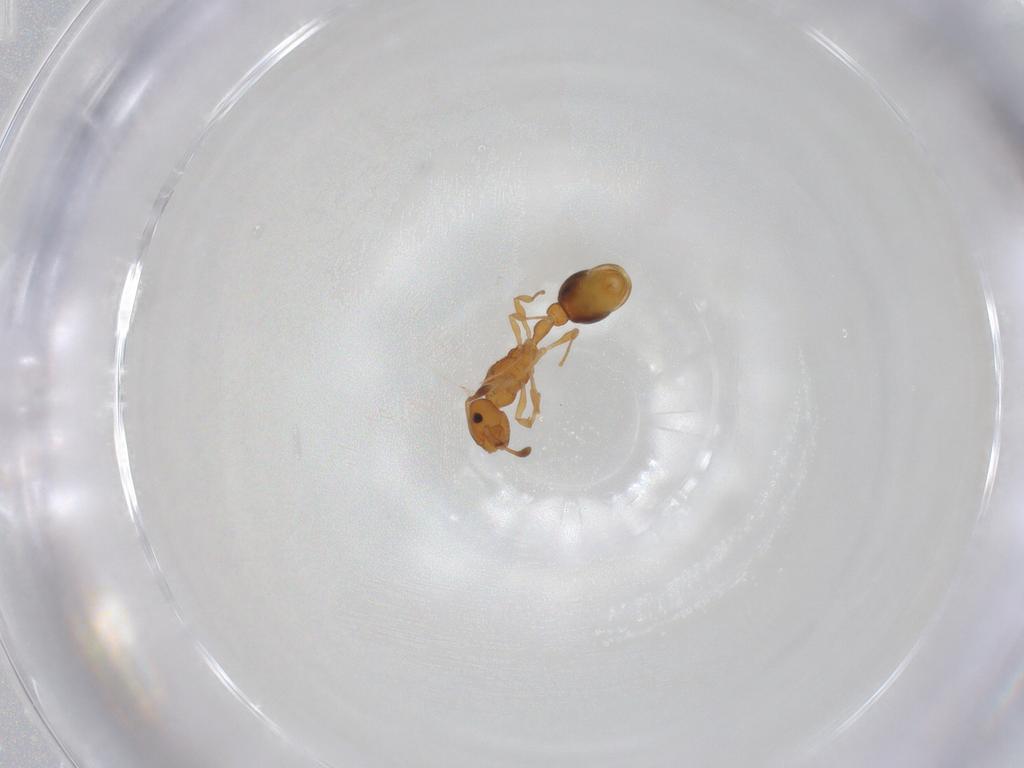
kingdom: Animalia
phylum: Arthropoda
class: Insecta
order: Hymenoptera
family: Formicidae
